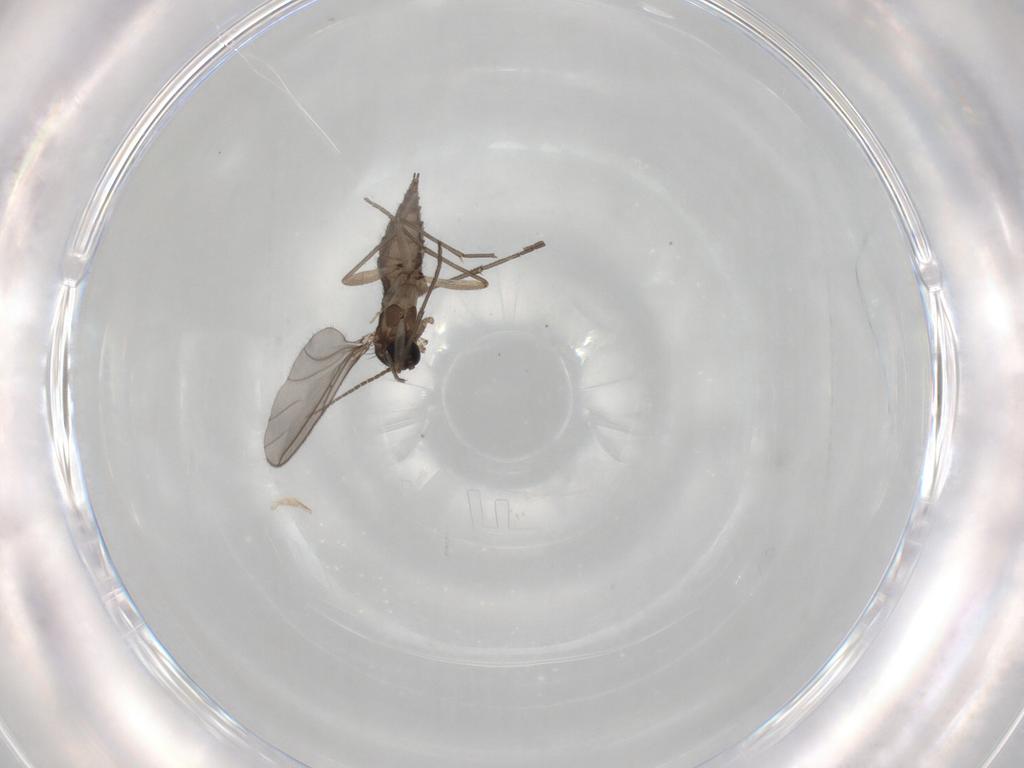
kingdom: Animalia
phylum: Arthropoda
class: Insecta
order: Diptera
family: Sciaridae
